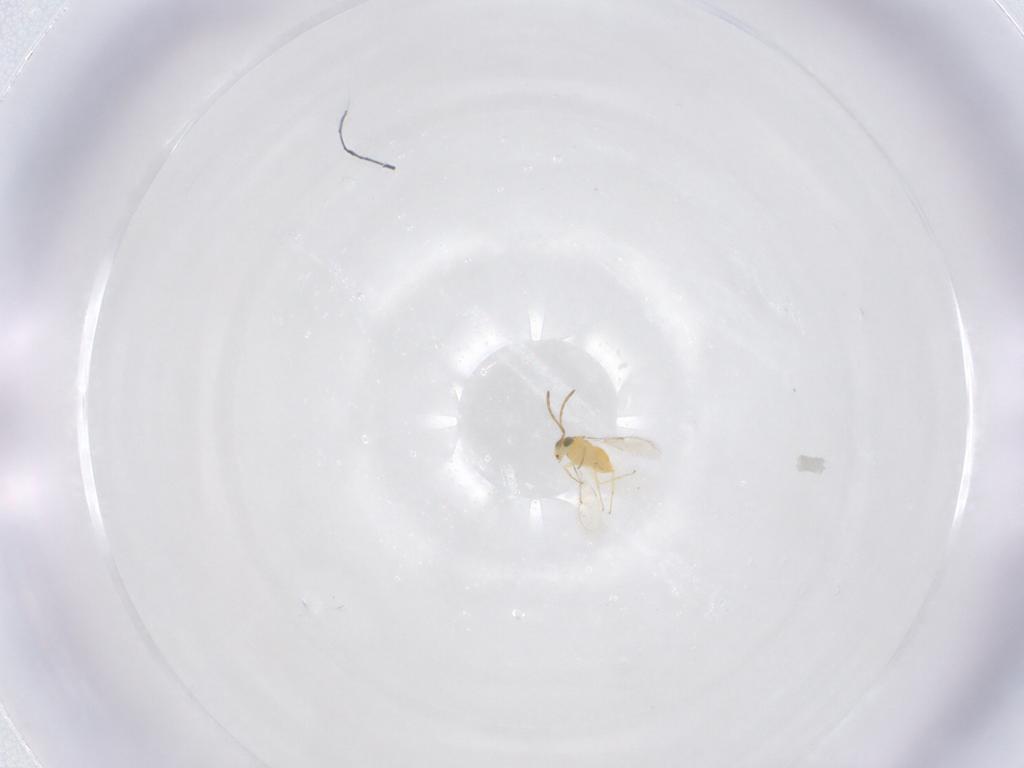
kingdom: Animalia
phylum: Arthropoda
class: Insecta
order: Hymenoptera
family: Aphelinidae
